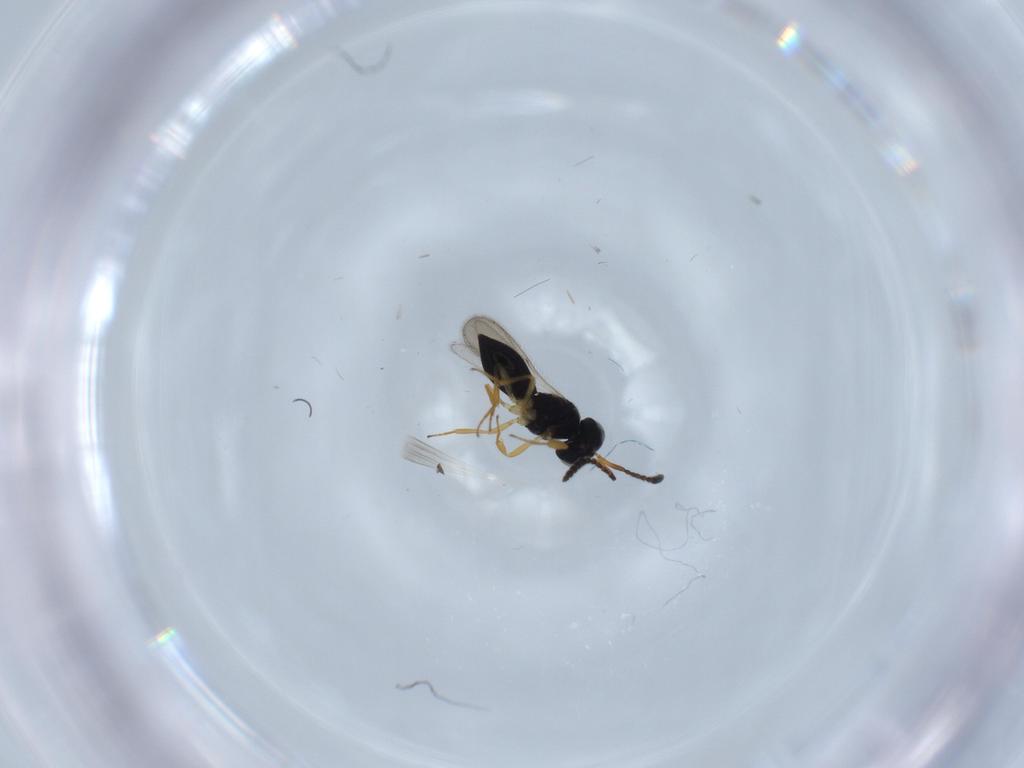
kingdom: Animalia
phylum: Arthropoda
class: Insecta
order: Hymenoptera
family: Scelionidae
